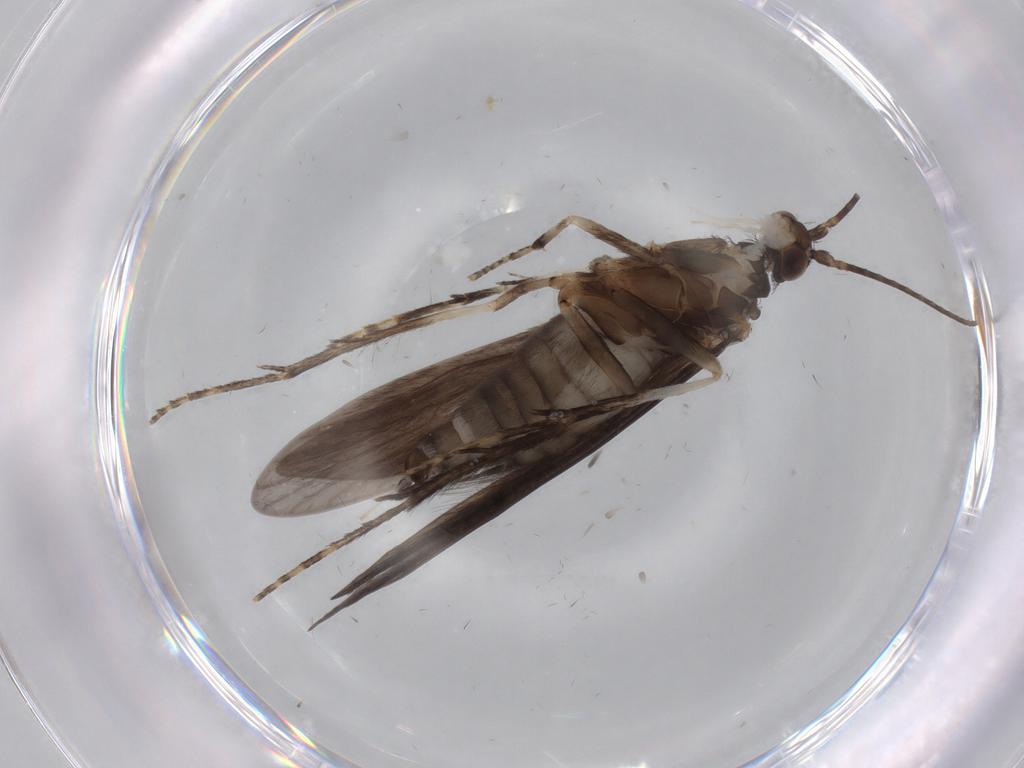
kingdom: Animalia
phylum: Arthropoda
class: Insecta
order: Trichoptera
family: Xiphocentronidae
